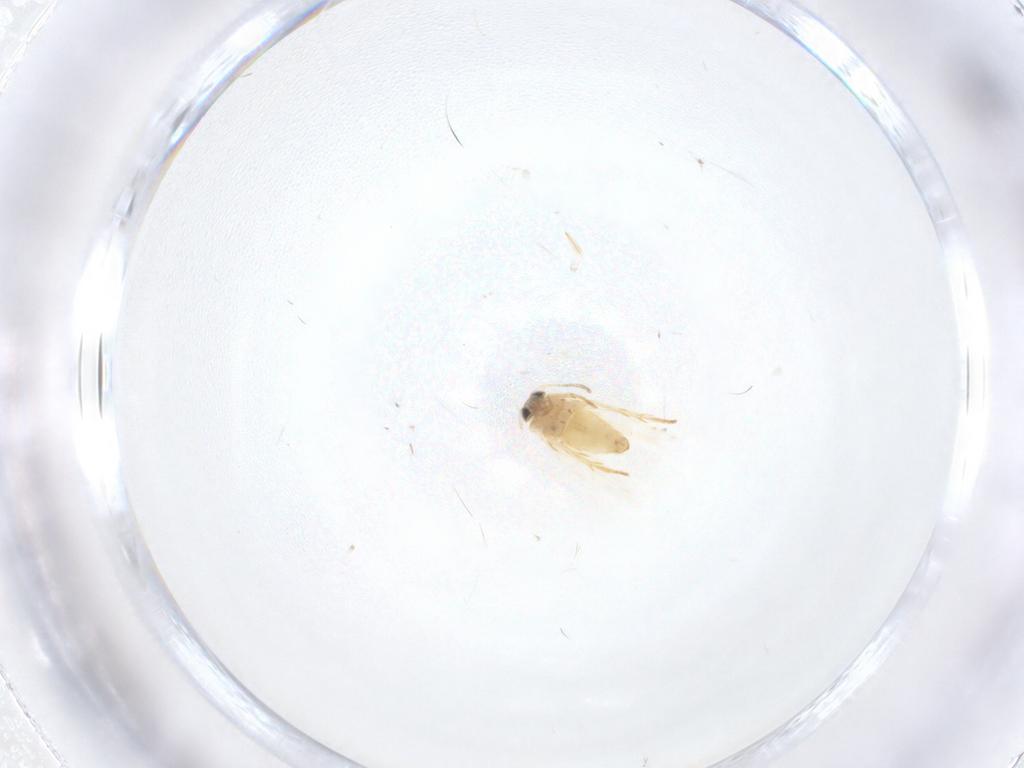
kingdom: Animalia
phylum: Arthropoda
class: Insecta
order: Lepidoptera
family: Crambidae
